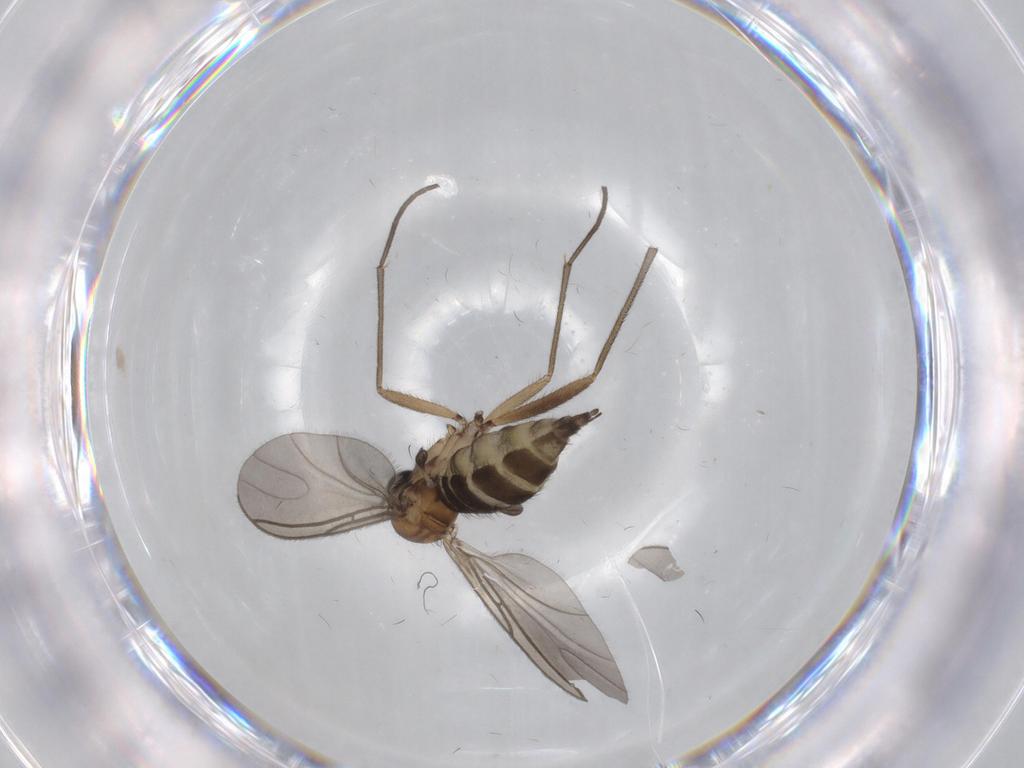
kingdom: Animalia
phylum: Arthropoda
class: Insecta
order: Diptera
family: Sciaridae
